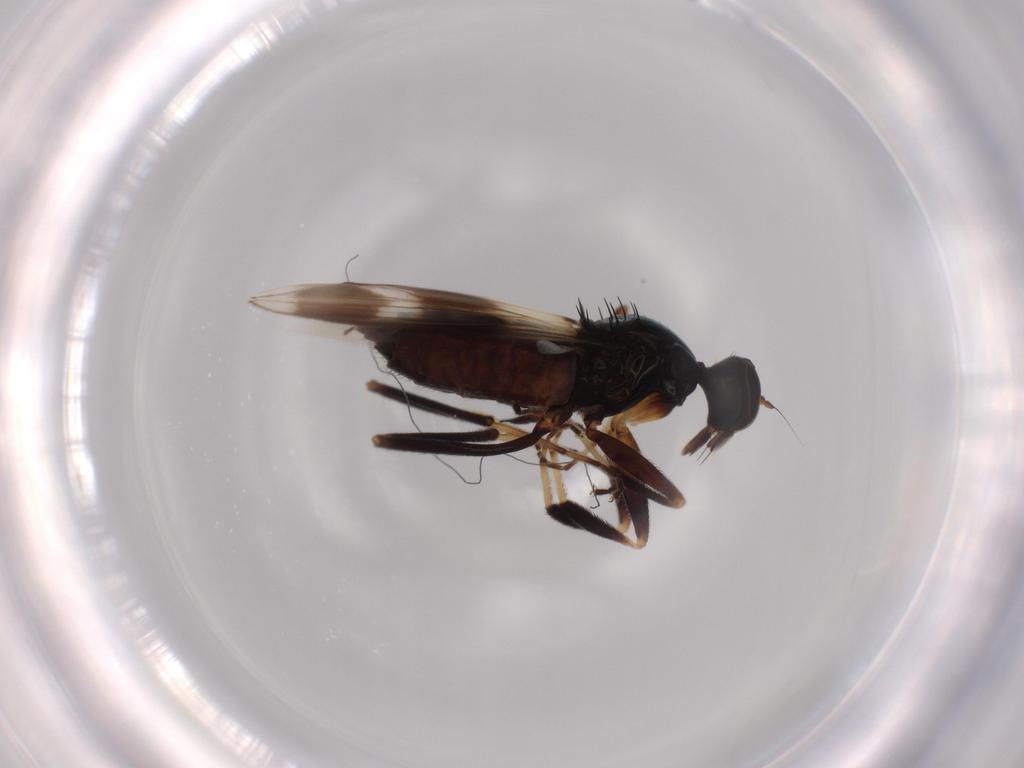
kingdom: Animalia
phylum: Arthropoda
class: Insecta
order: Diptera
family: Hybotidae
